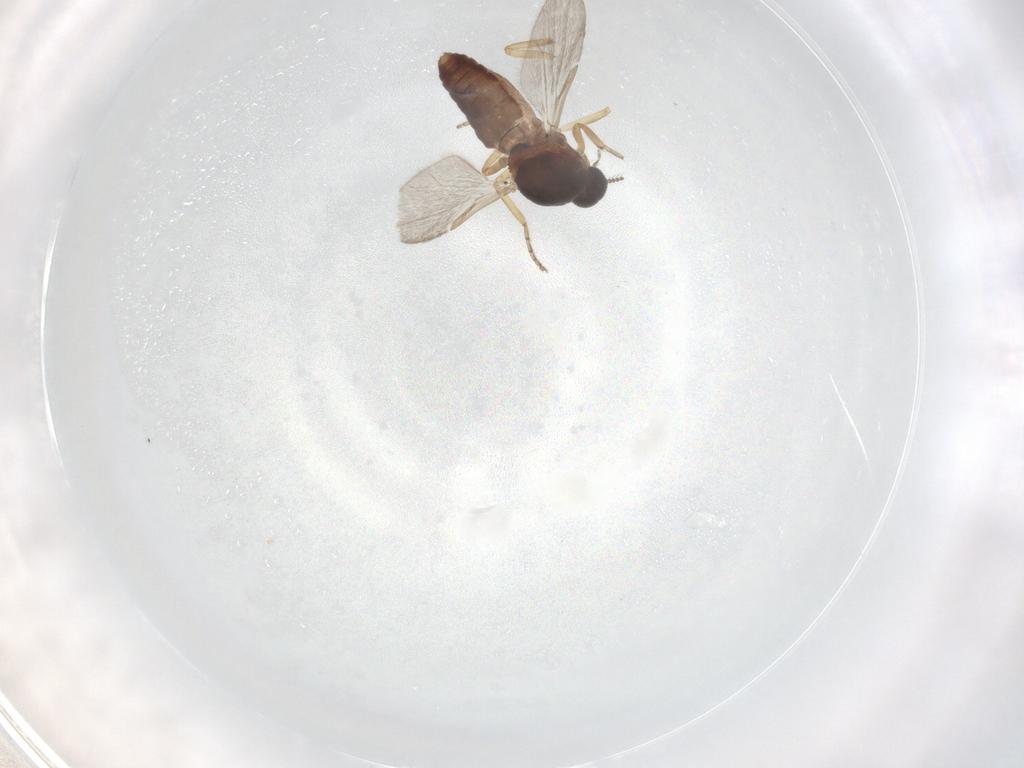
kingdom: Animalia
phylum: Arthropoda
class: Insecta
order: Diptera
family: Ceratopogonidae
